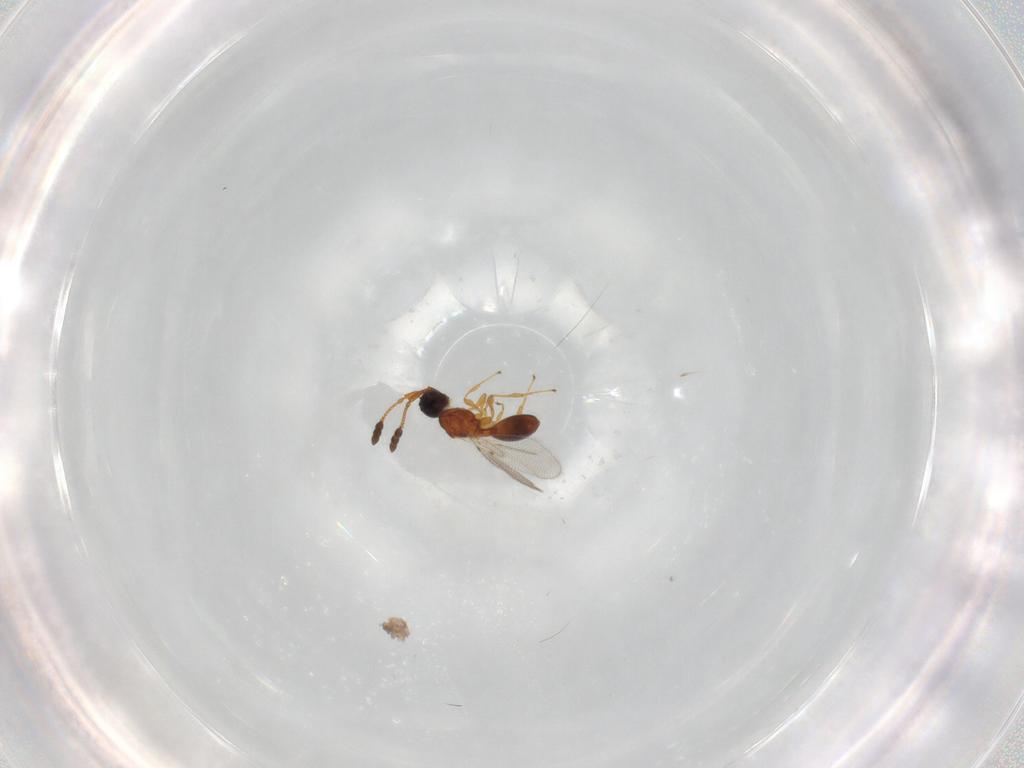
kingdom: Animalia
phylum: Arthropoda
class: Insecta
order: Hymenoptera
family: Diapriidae
